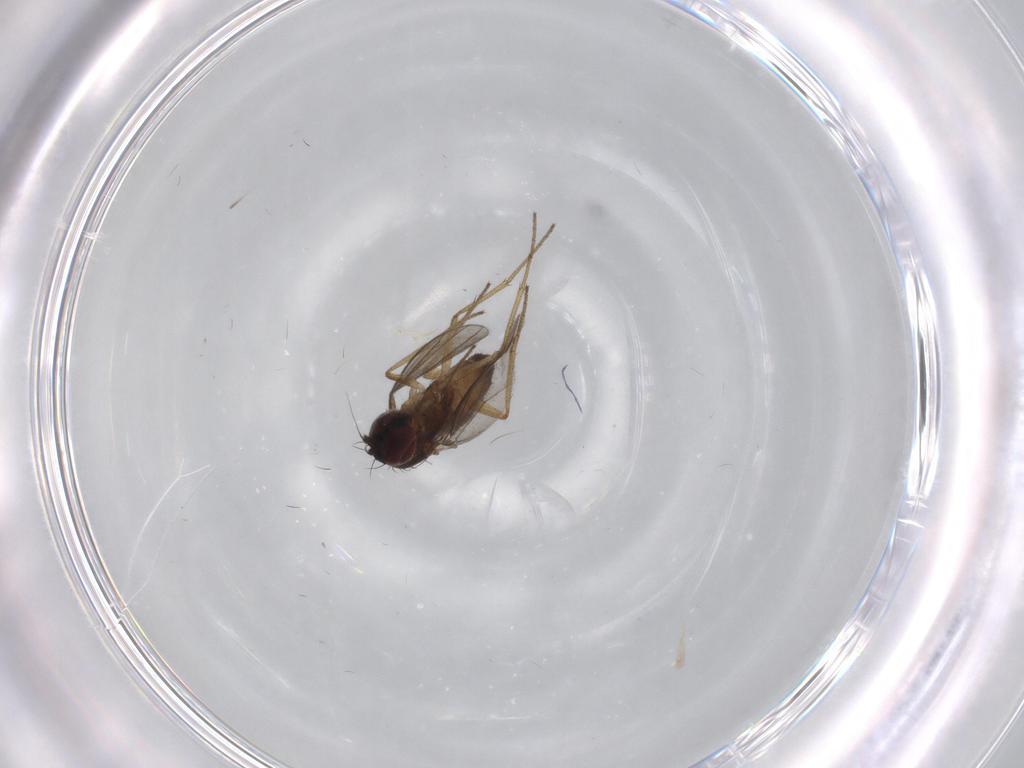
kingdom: Animalia
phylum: Arthropoda
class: Insecta
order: Diptera
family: Dolichopodidae
